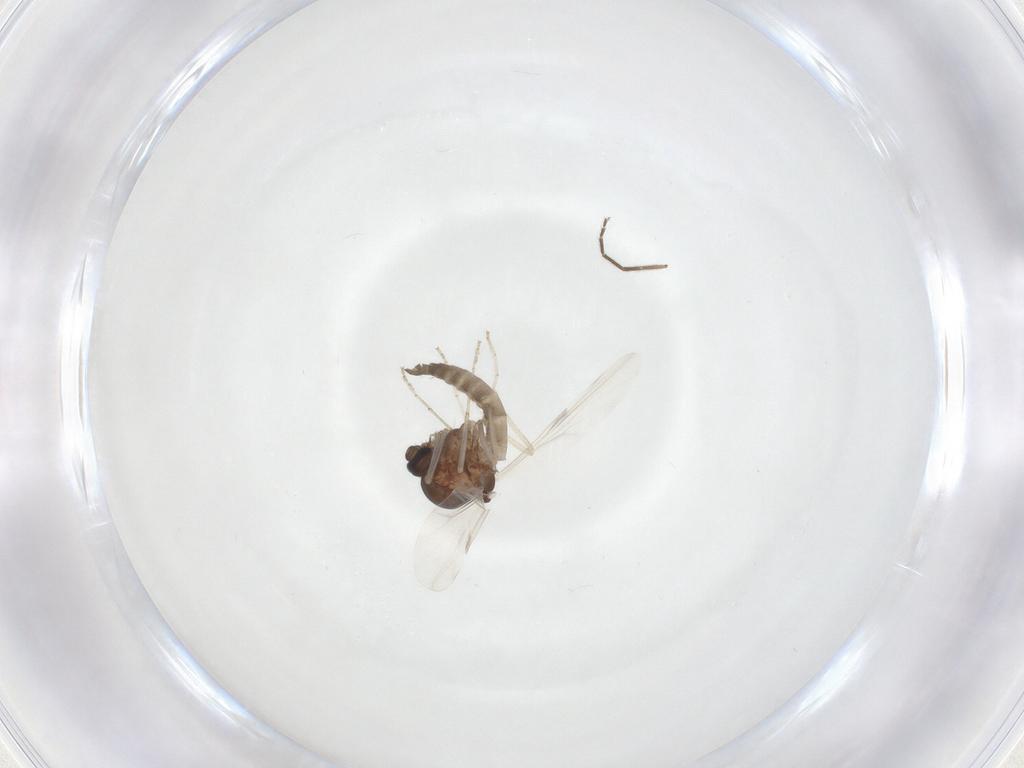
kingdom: Animalia
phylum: Arthropoda
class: Insecta
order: Diptera
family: Ceratopogonidae
